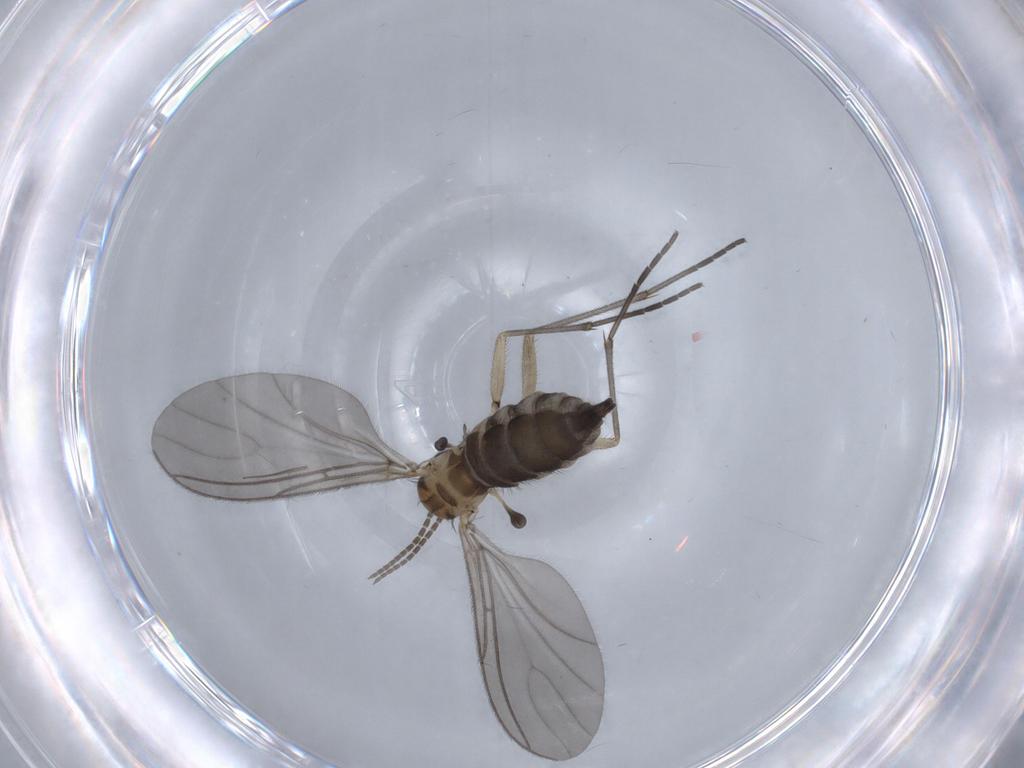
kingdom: Animalia
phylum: Arthropoda
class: Insecta
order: Diptera
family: Sciaridae
